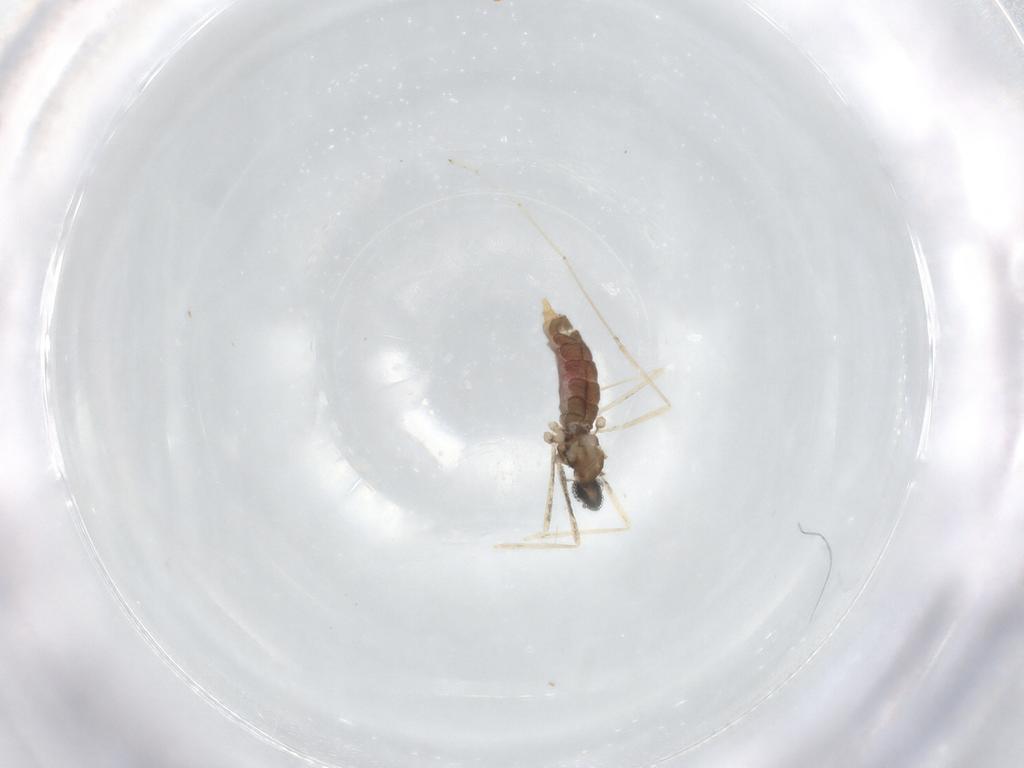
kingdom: Animalia
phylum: Arthropoda
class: Insecta
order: Diptera
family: Cecidomyiidae
